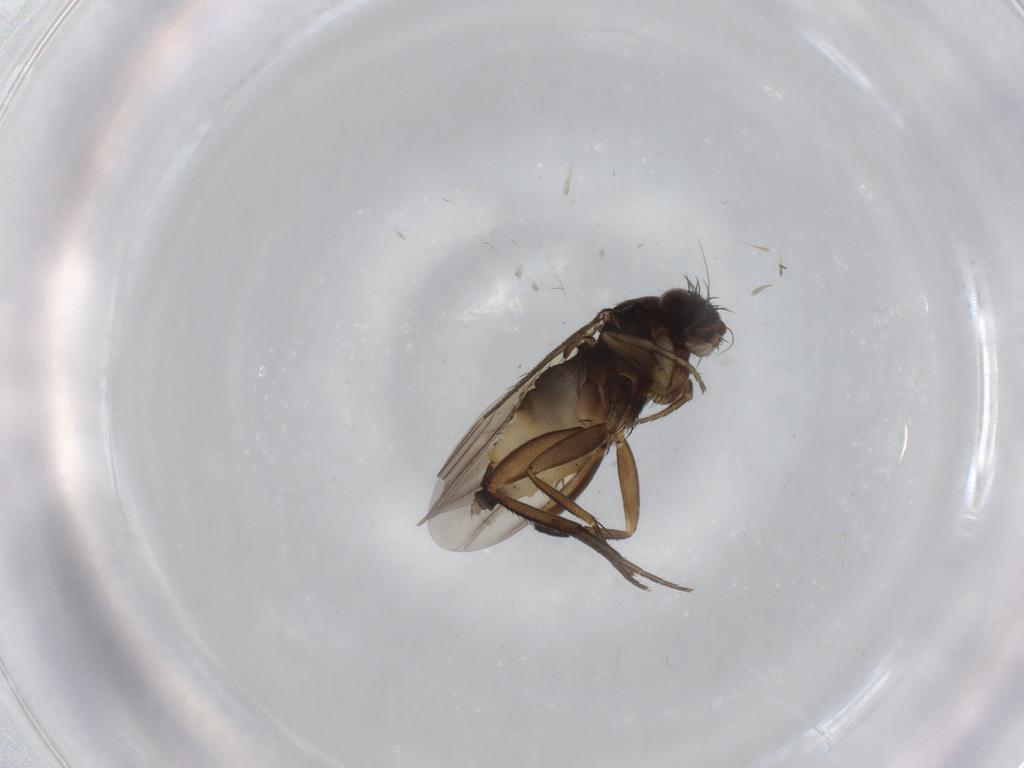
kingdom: Animalia
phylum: Arthropoda
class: Insecta
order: Diptera
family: Phoridae
